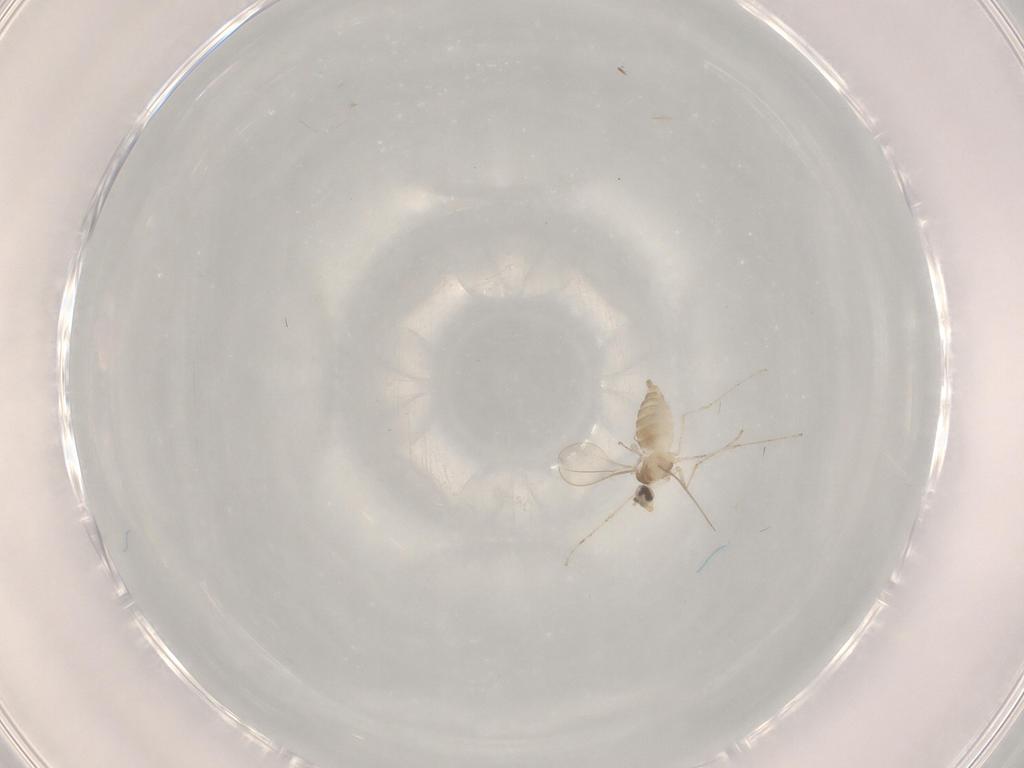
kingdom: Animalia
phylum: Arthropoda
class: Insecta
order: Diptera
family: Cecidomyiidae
